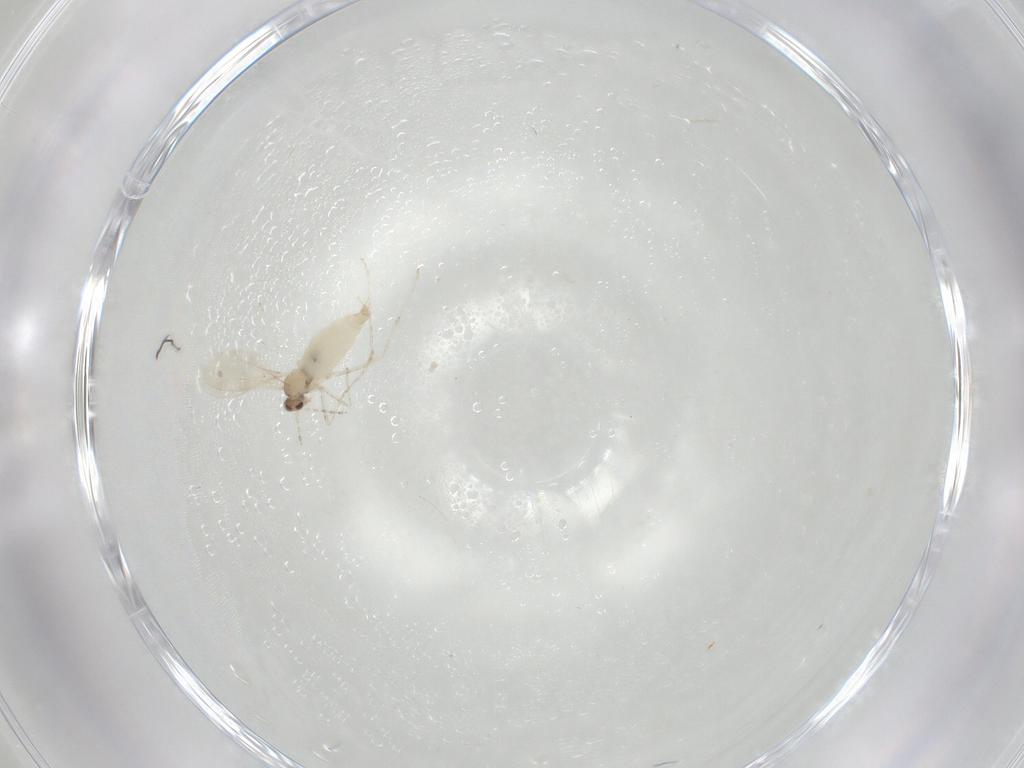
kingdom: Animalia
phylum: Arthropoda
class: Insecta
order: Diptera
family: Cecidomyiidae
